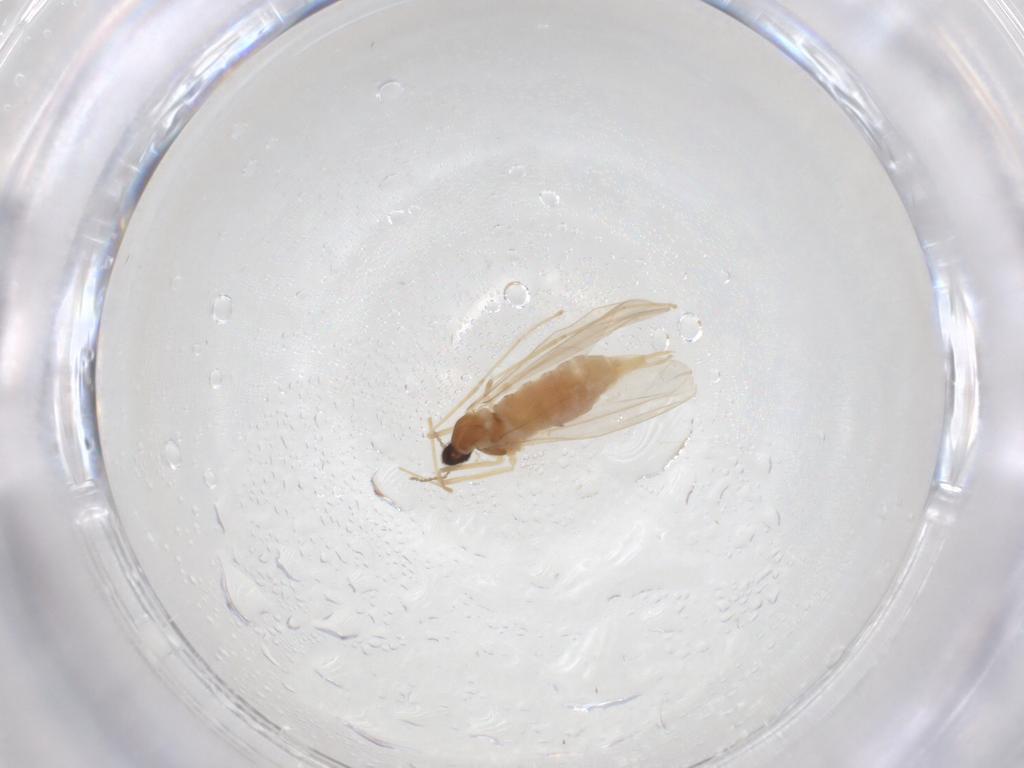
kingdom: Animalia
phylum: Arthropoda
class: Insecta
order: Diptera
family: Cecidomyiidae
